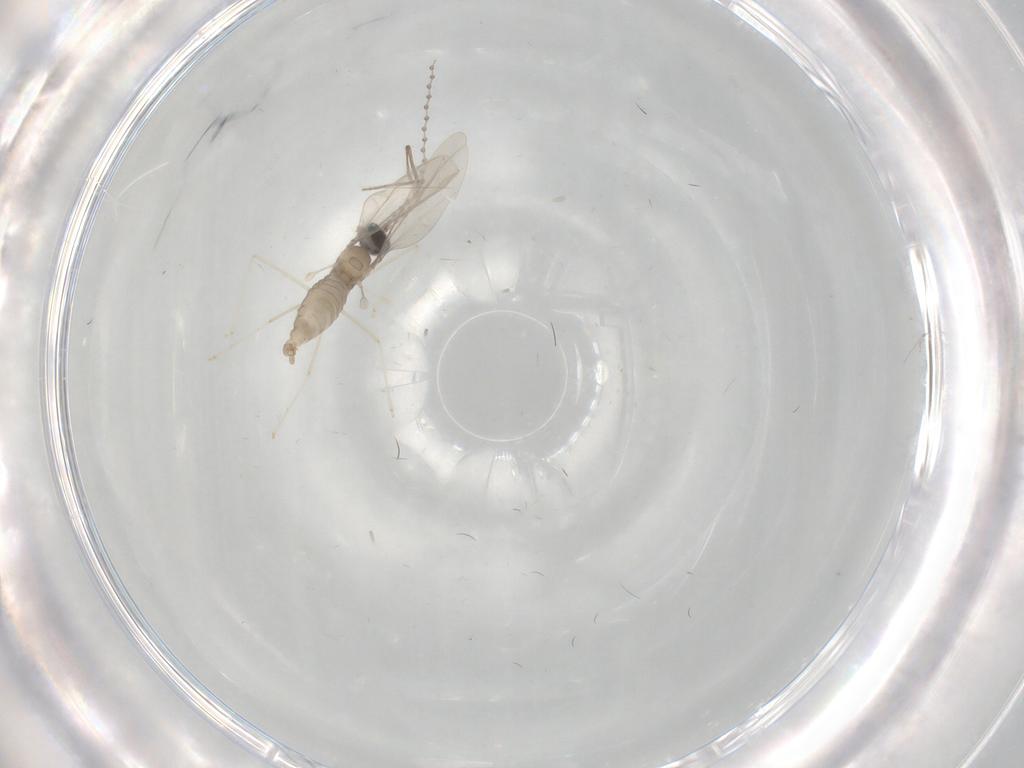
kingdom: Animalia
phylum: Arthropoda
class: Insecta
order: Diptera
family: Cecidomyiidae
